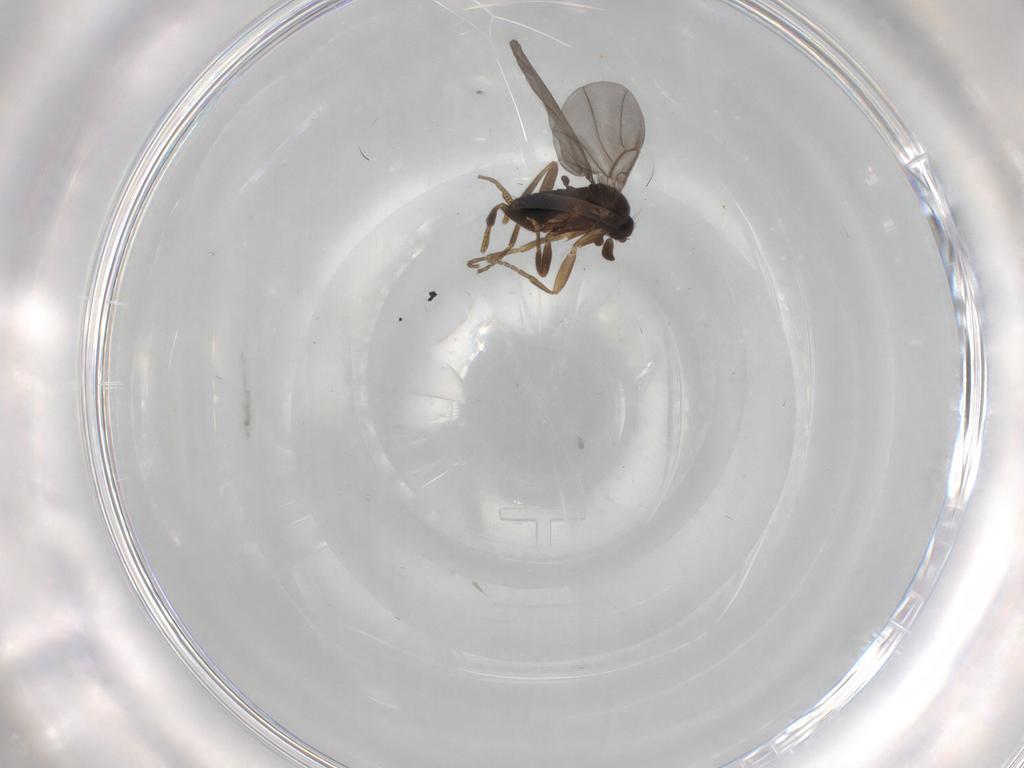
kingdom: Animalia
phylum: Arthropoda
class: Insecta
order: Diptera
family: Phoridae
